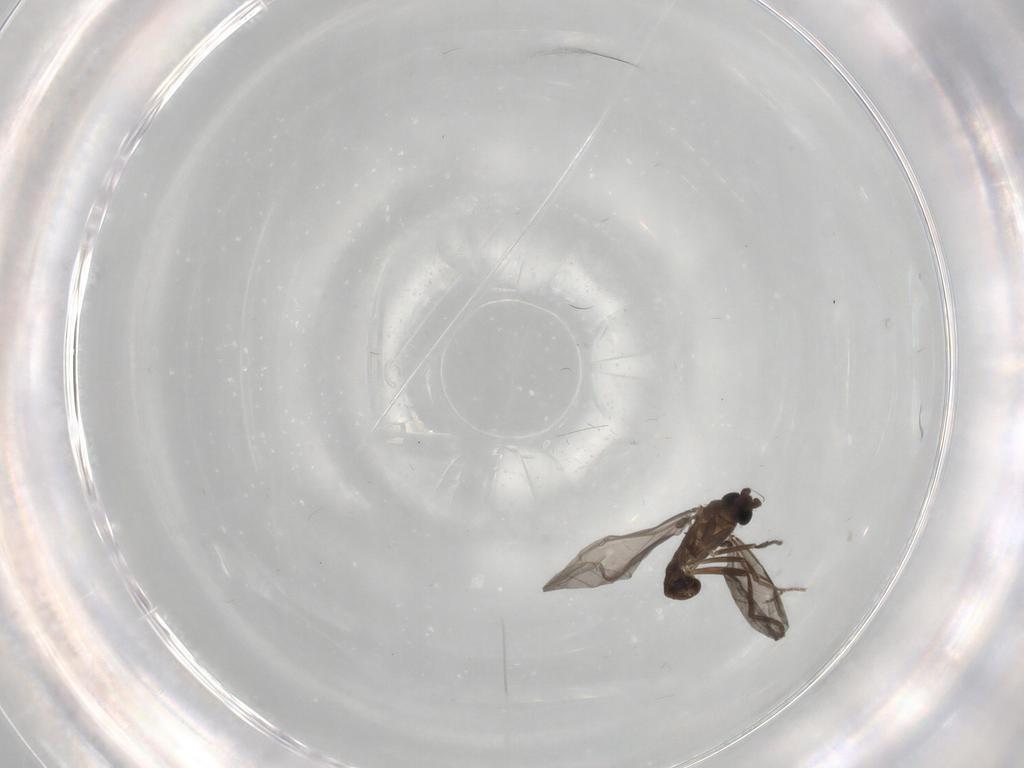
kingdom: Animalia
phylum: Arthropoda
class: Insecta
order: Diptera
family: Phoridae
